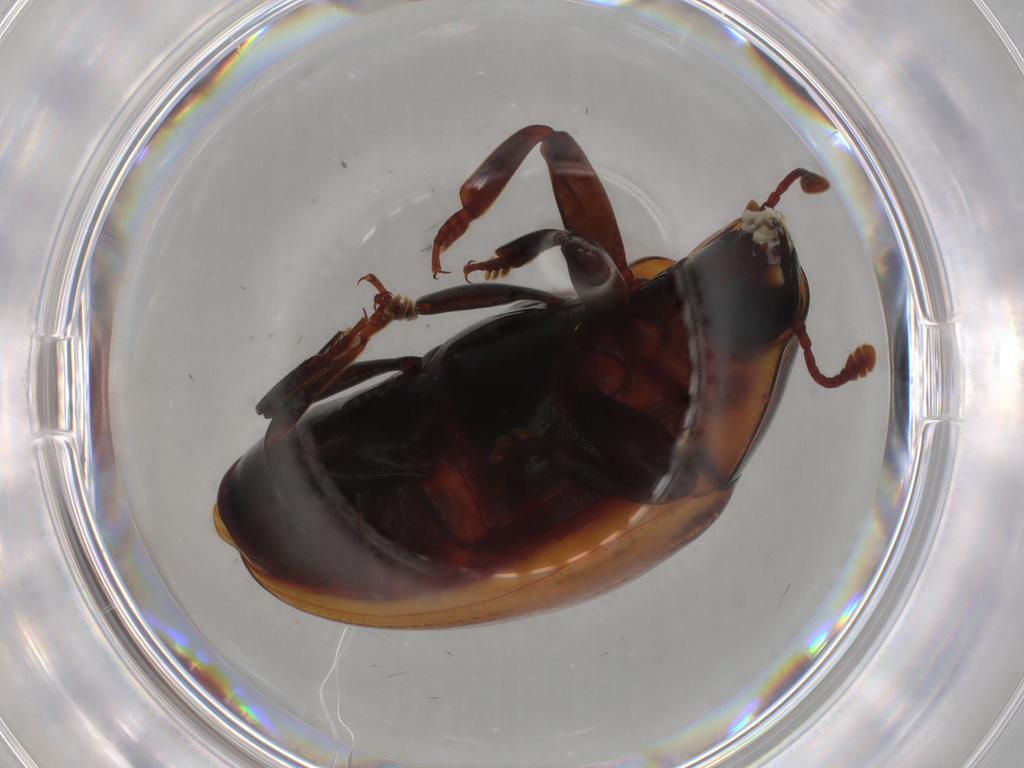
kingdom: Animalia
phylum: Arthropoda
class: Insecta
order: Coleoptera
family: Zopheridae
